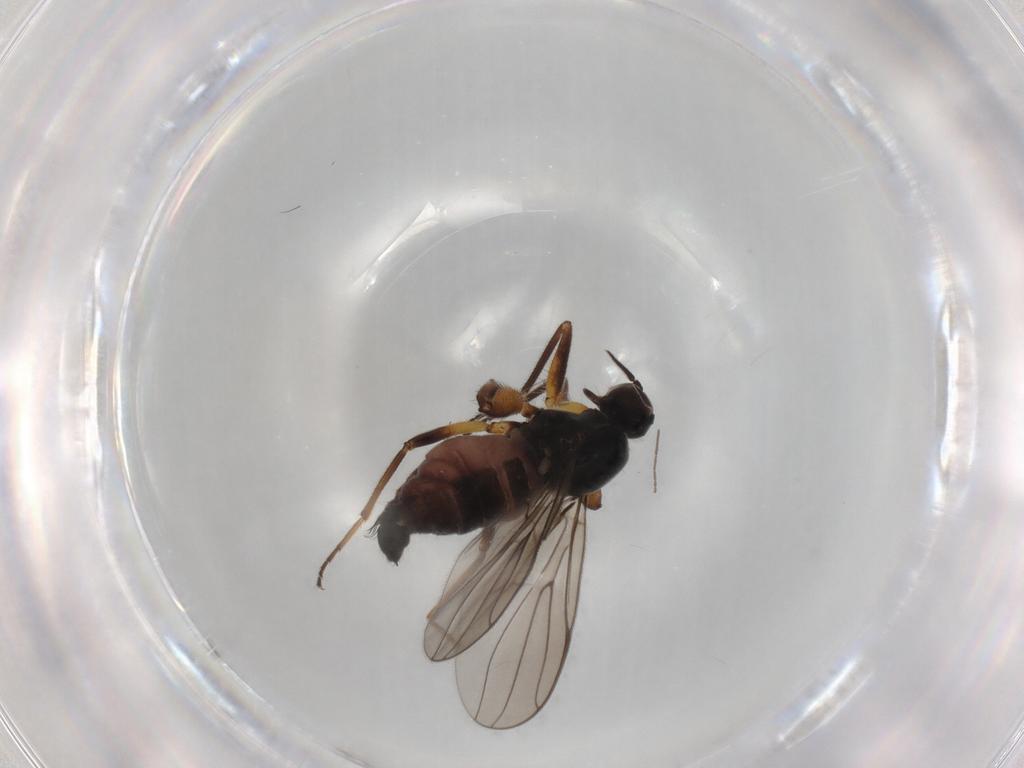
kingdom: Animalia
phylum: Arthropoda
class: Insecta
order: Diptera
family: Hybotidae
